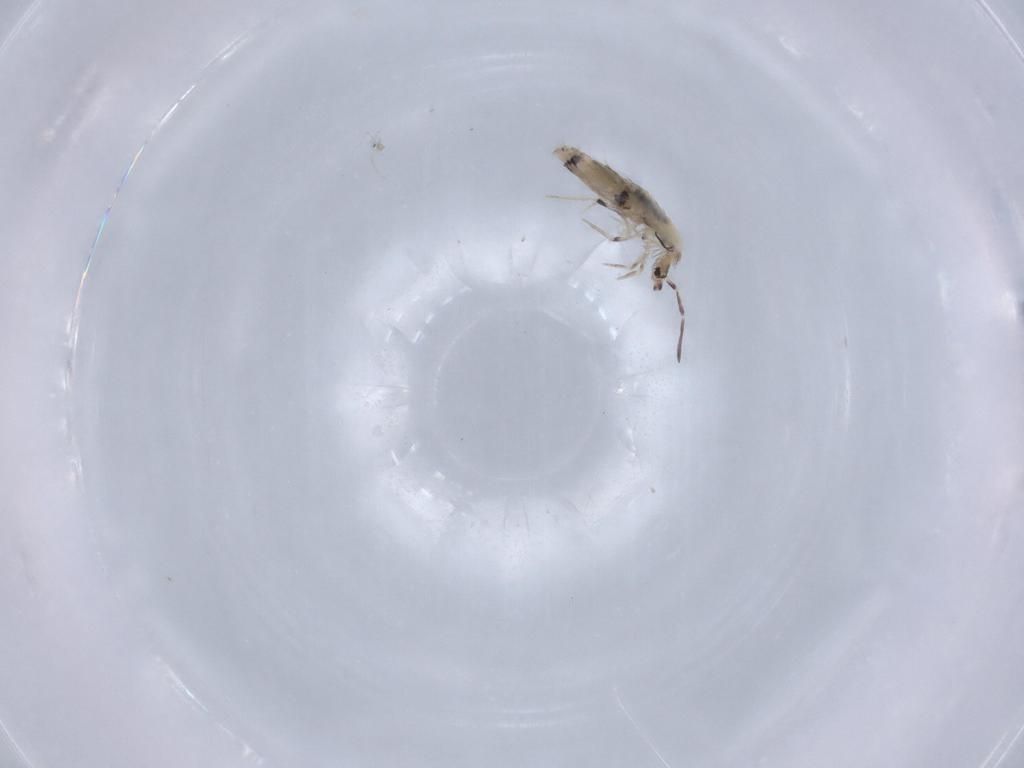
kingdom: Animalia
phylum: Arthropoda
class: Collembola
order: Poduromorpha
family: Hypogastruridae
